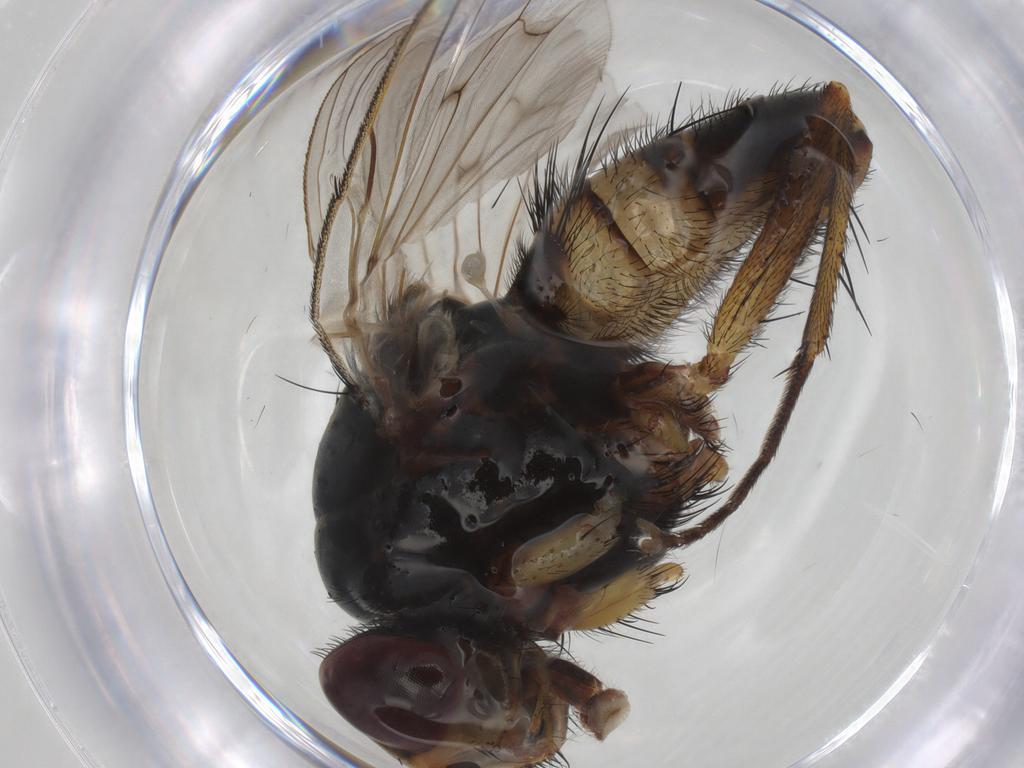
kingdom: Animalia
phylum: Arthropoda
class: Insecta
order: Diptera
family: Anthomyiidae
